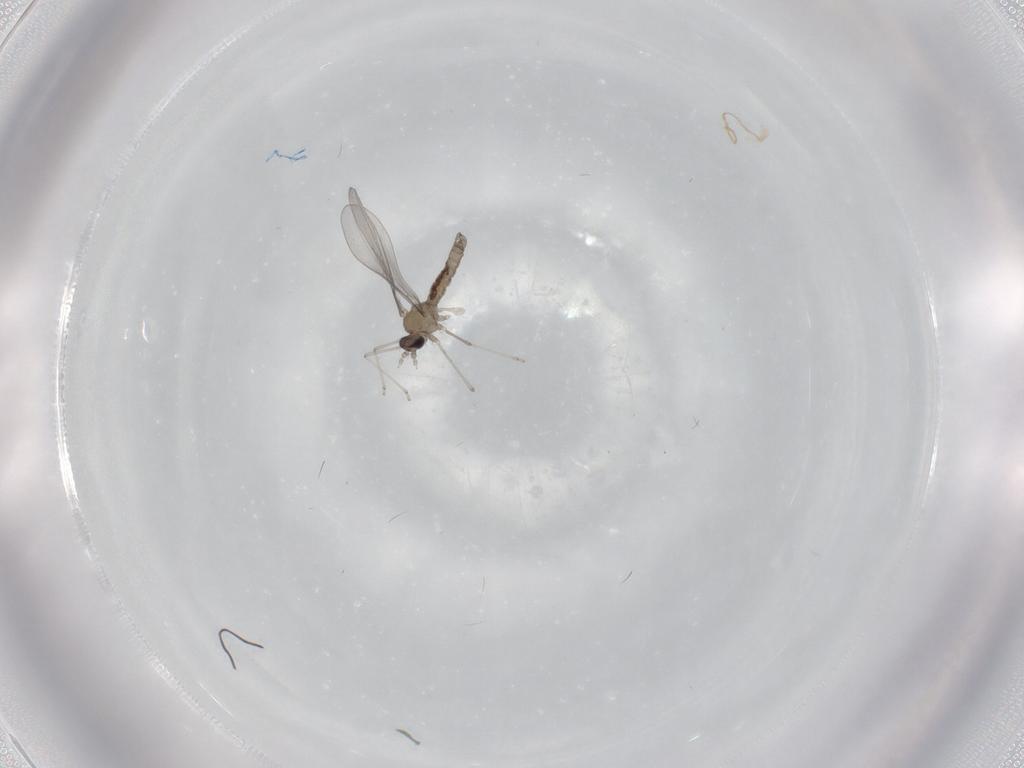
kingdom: Animalia
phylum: Arthropoda
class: Insecta
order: Diptera
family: Cecidomyiidae
